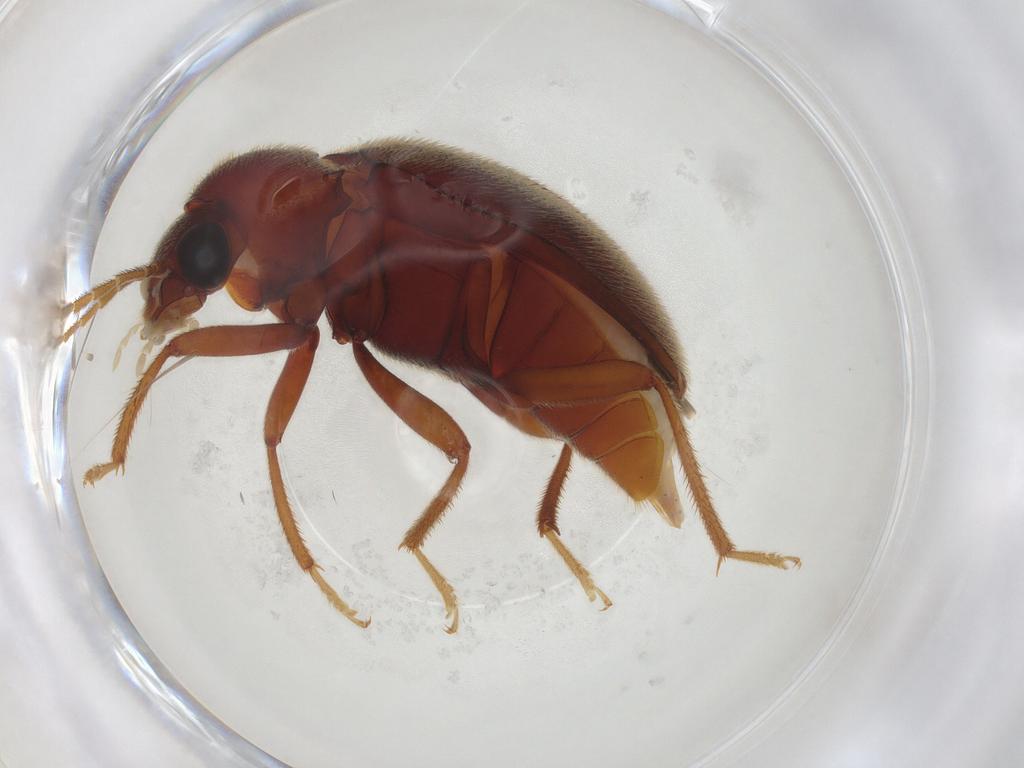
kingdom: Animalia
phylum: Arthropoda
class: Insecta
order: Coleoptera
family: Ptilodactylidae
